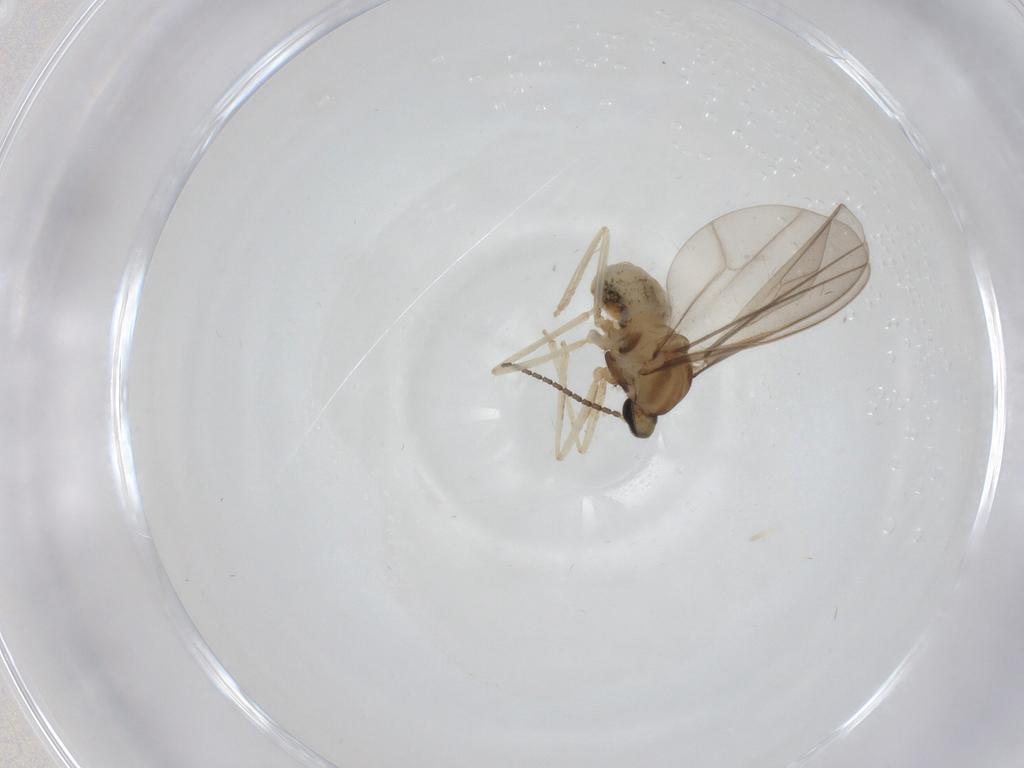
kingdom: Animalia
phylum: Arthropoda
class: Insecta
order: Diptera
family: Cecidomyiidae
